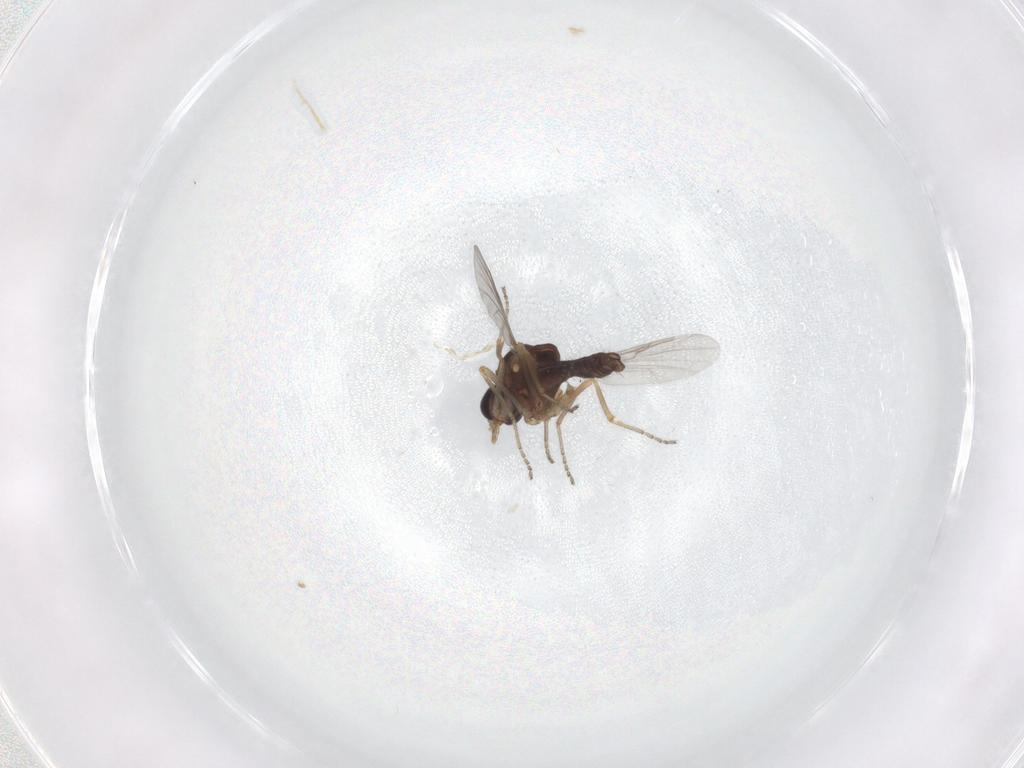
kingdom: Animalia
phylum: Arthropoda
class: Insecta
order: Diptera
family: Ceratopogonidae
